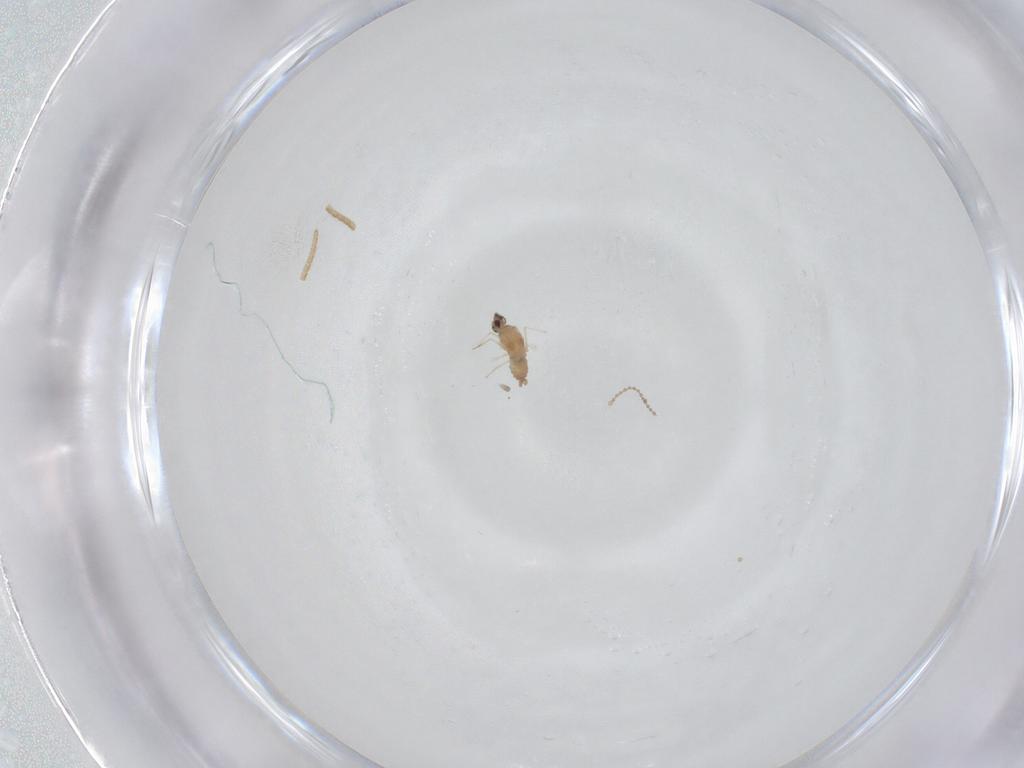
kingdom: Animalia
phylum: Arthropoda
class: Insecta
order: Diptera
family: Cecidomyiidae
